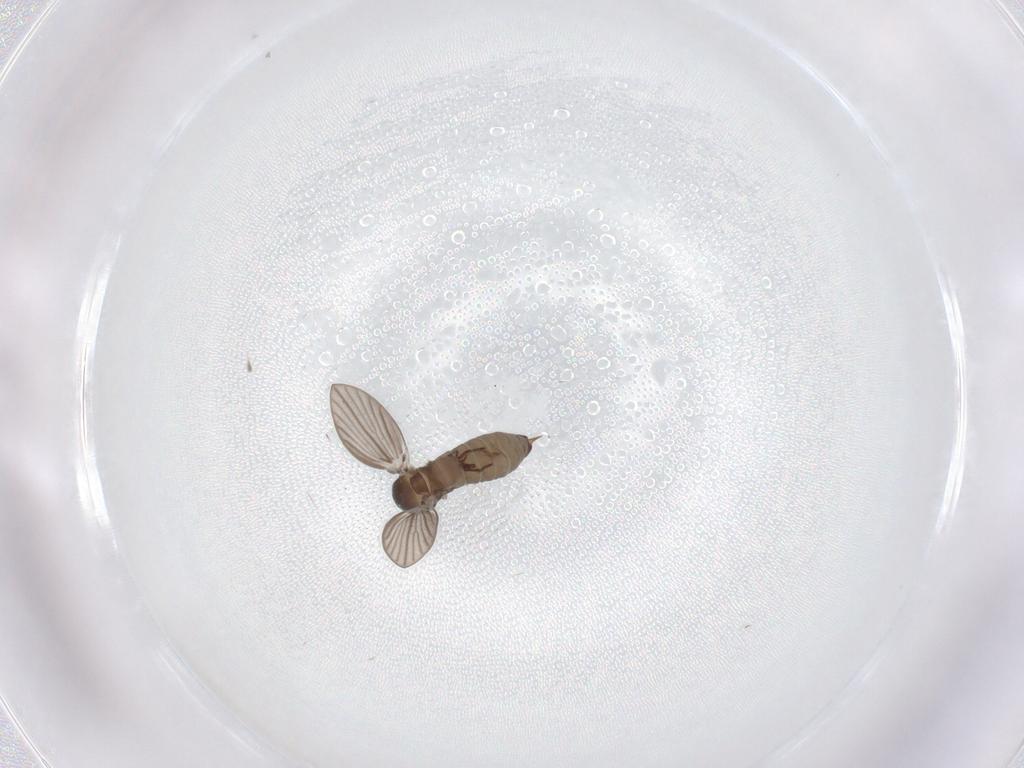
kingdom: Animalia
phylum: Arthropoda
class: Insecta
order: Diptera
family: Psychodidae
